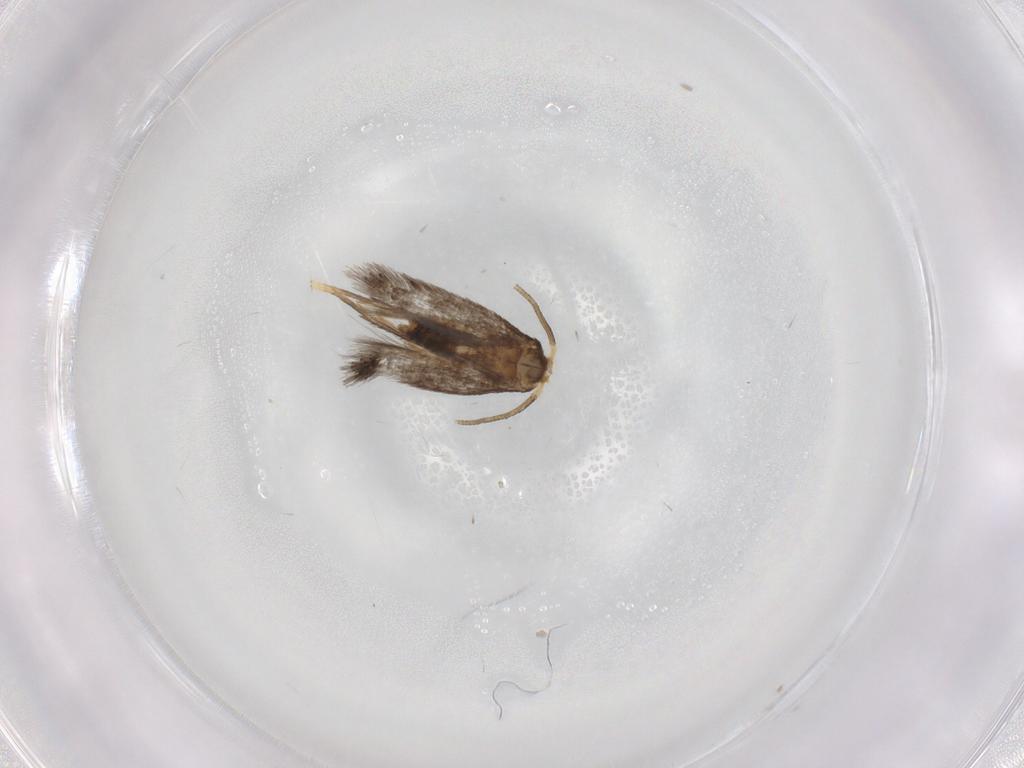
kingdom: Animalia
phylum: Arthropoda
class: Insecta
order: Lepidoptera
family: Nepticulidae
